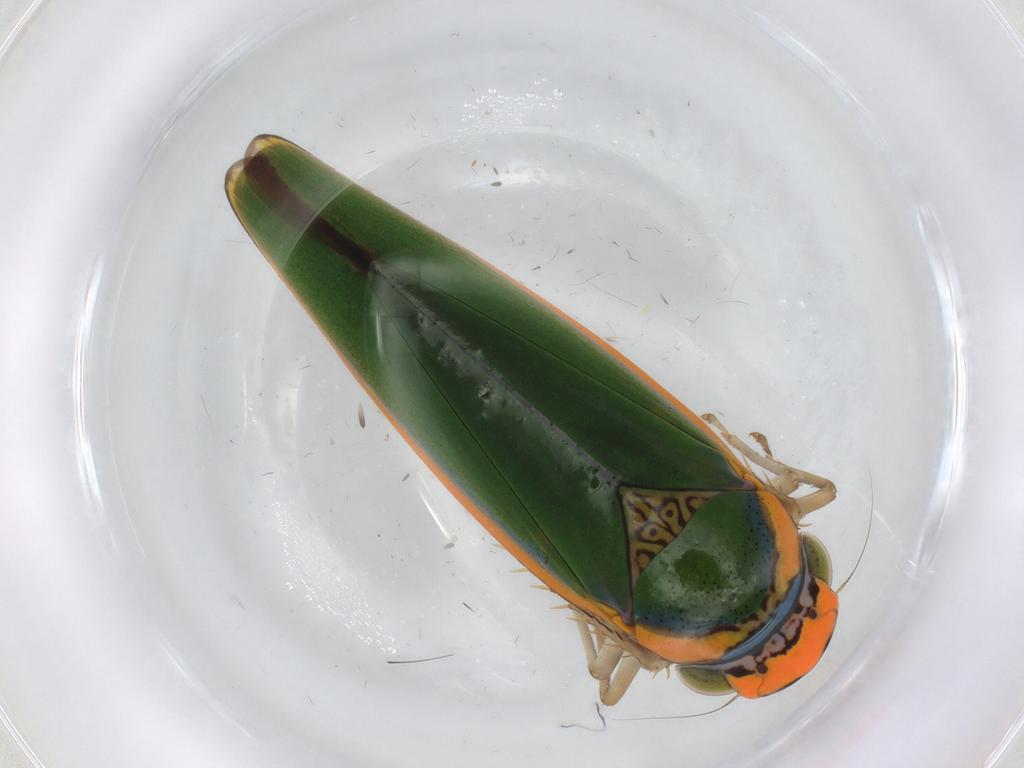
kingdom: Animalia
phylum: Arthropoda
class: Insecta
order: Hemiptera
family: Cicadellidae
